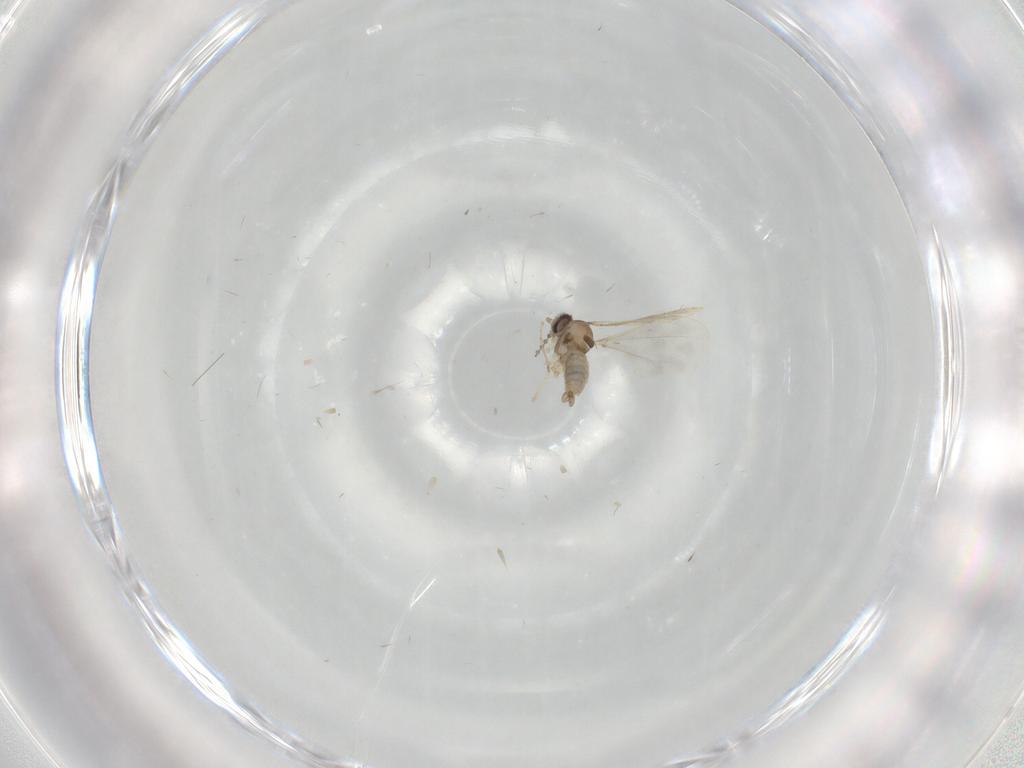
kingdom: Animalia
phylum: Arthropoda
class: Insecta
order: Diptera
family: Cecidomyiidae
